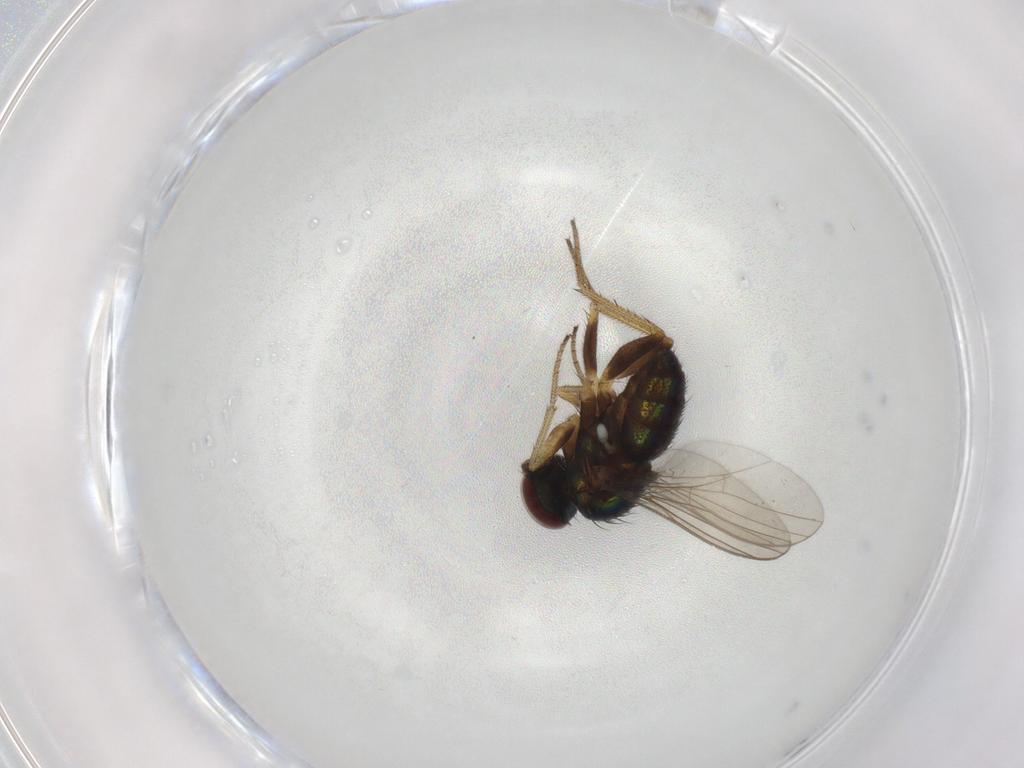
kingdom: Animalia
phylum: Arthropoda
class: Insecta
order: Diptera
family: Dolichopodidae
